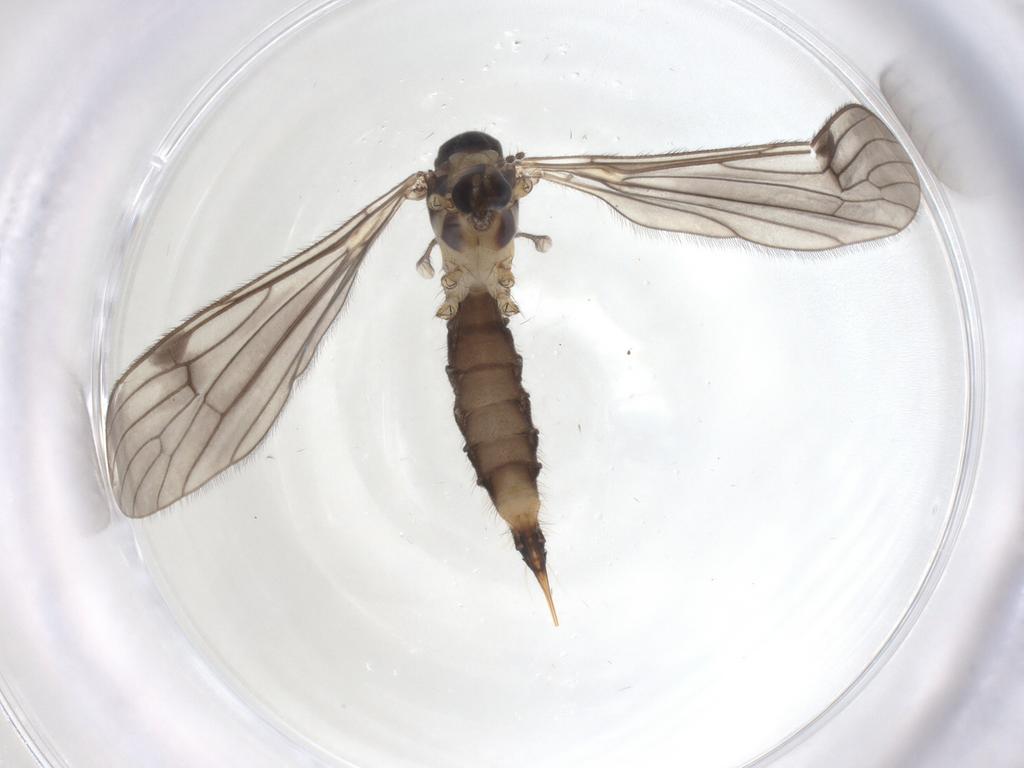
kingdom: Animalia
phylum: Arthropoda
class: Insecta
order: Diptera
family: Limoniidae
